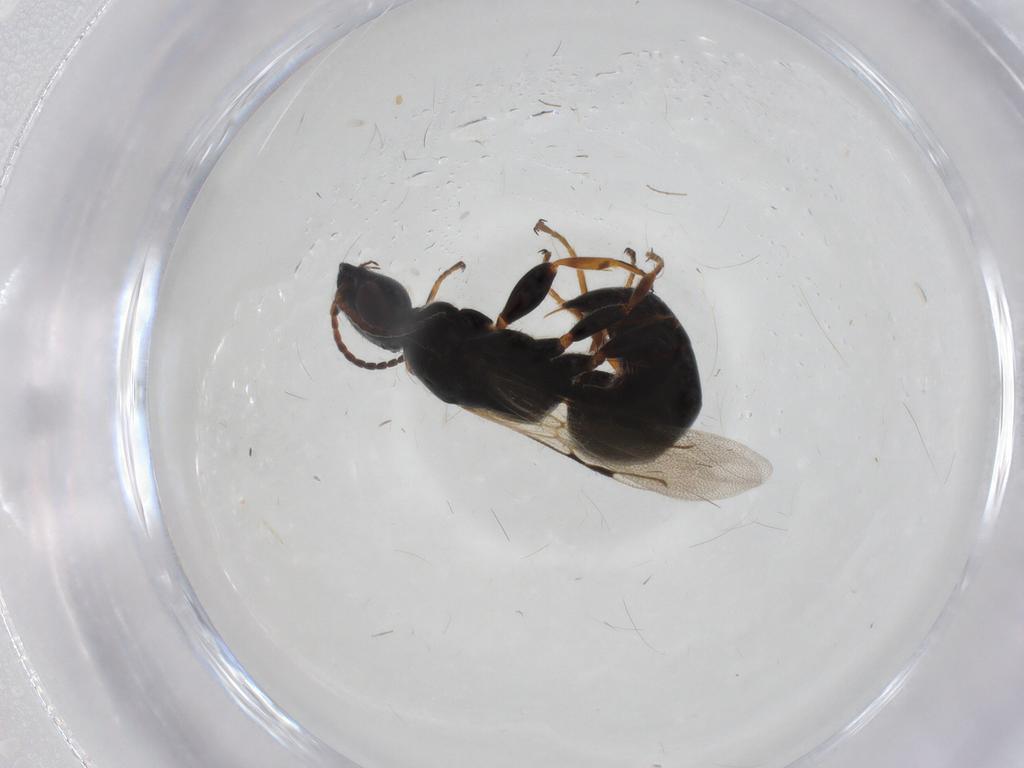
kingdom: Animalia
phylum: Arthropoda
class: Insecta
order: Hymenoptera
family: Bethylidae
